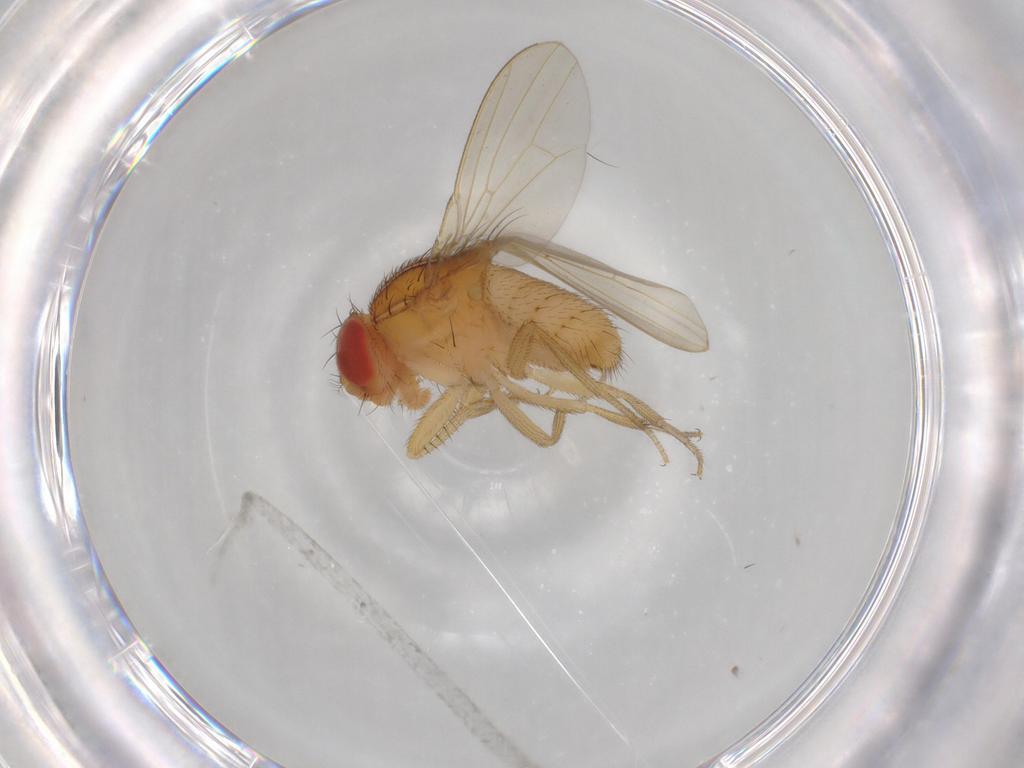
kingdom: Animalia
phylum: Arthropoda
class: Insecta
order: Diptera
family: Drosophilidae
